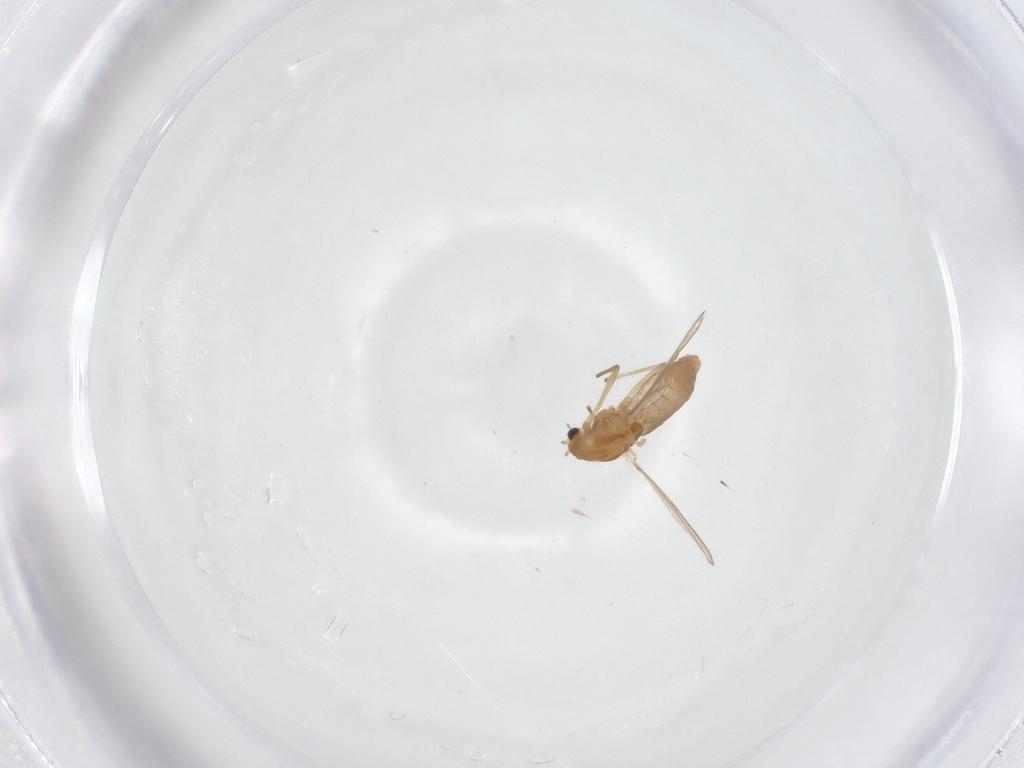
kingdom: Animalia
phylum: Arthropoda
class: Insecta
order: Diptera
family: Chironomidae
